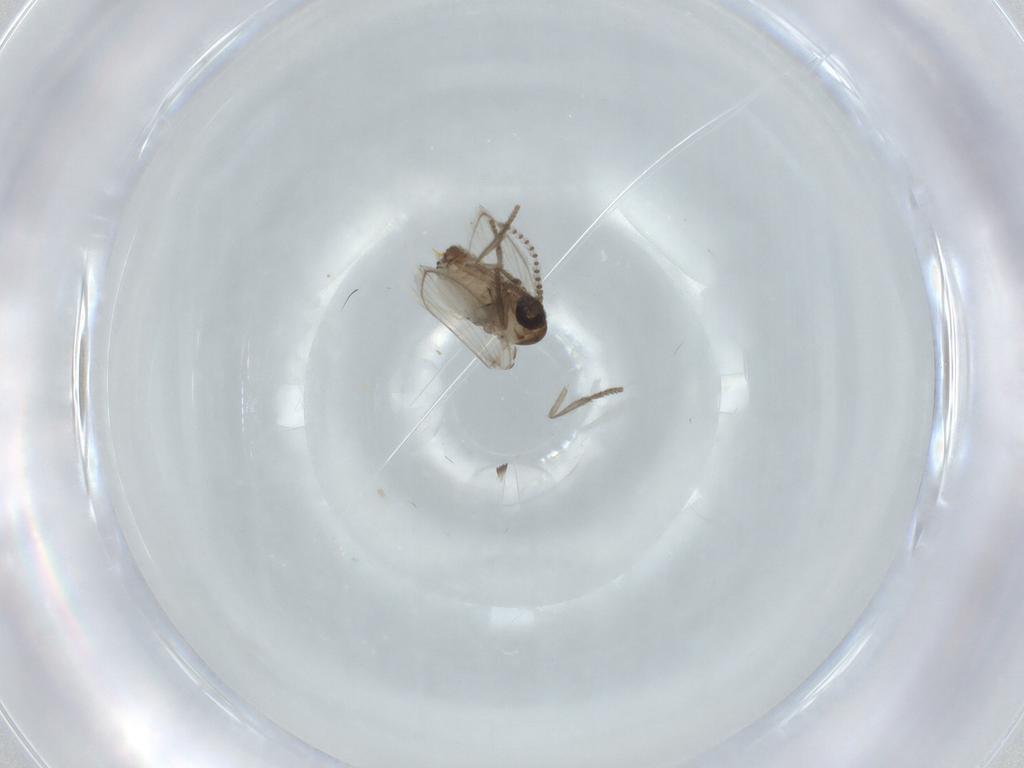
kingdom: Animalia
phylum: Arthropoda
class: Insecta
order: Diptera
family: Psychodidae
